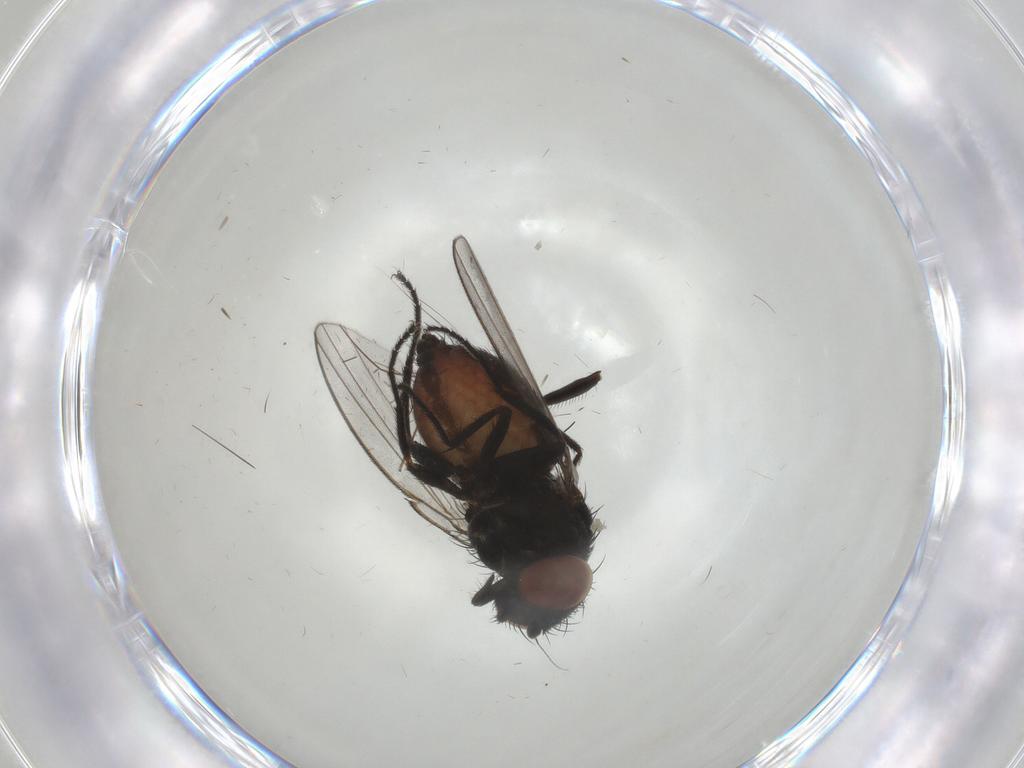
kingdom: Animalia
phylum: Arthropoda
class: Insecta
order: Diptera
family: Milichiidae
